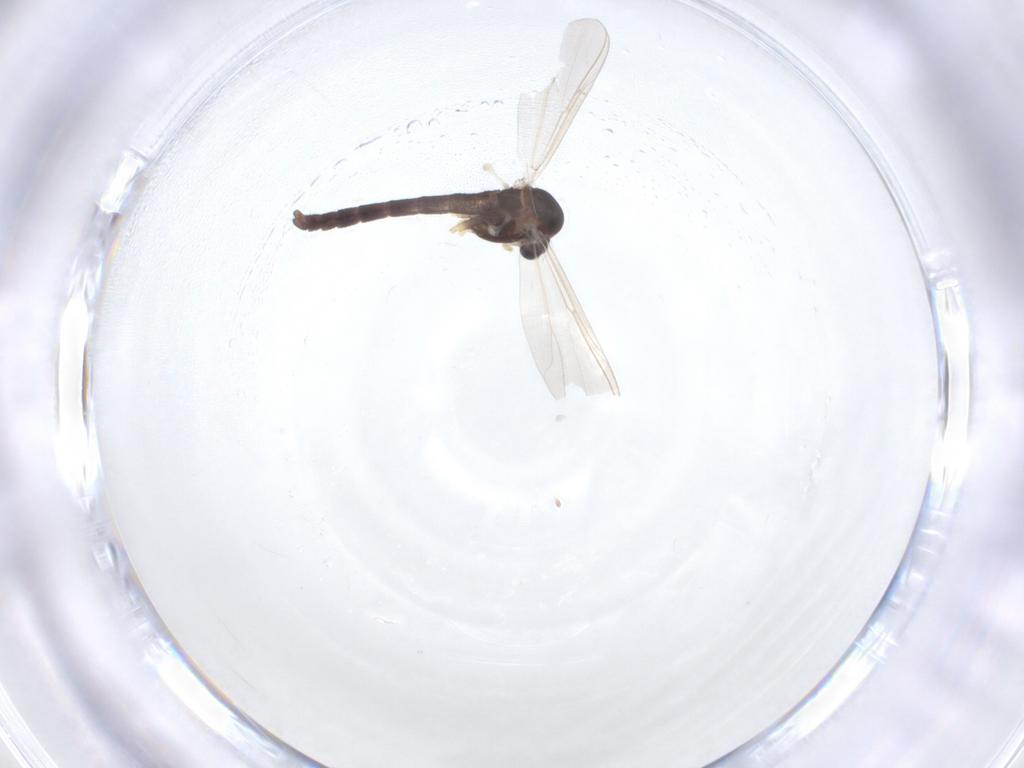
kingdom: Animalia
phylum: Arthropoda
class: Insecta
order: Diptera
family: Chironomidae
